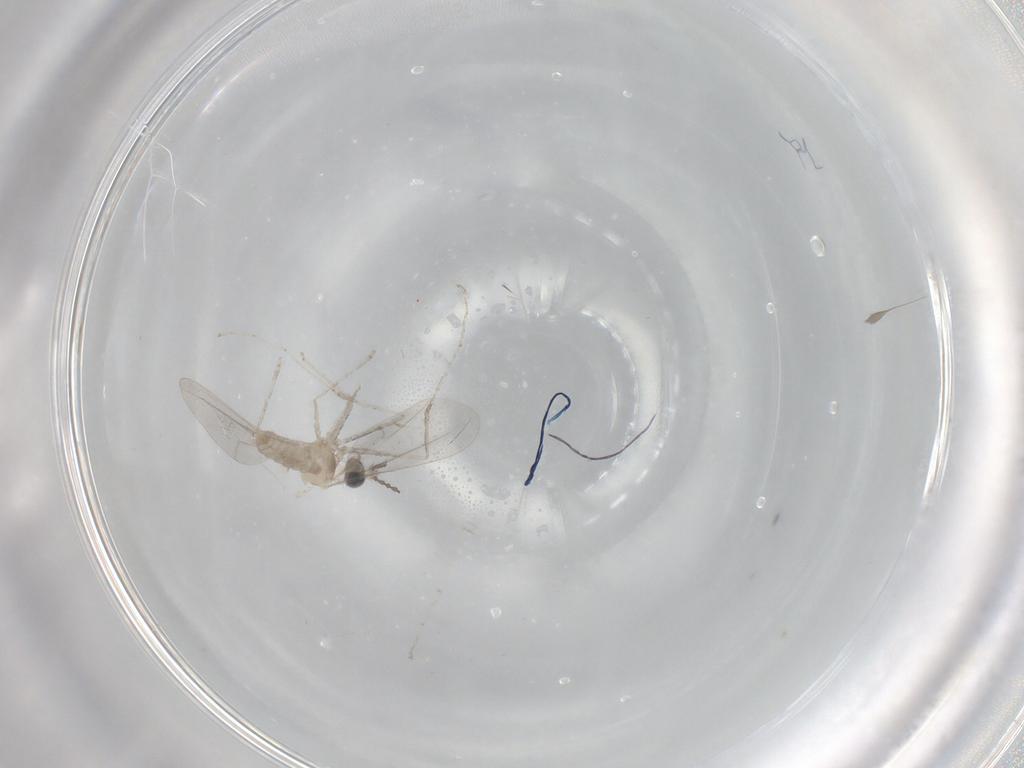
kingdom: Animalia
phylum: Arthropoda
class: Insecta
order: Diptera
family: Cecidomyiidae
